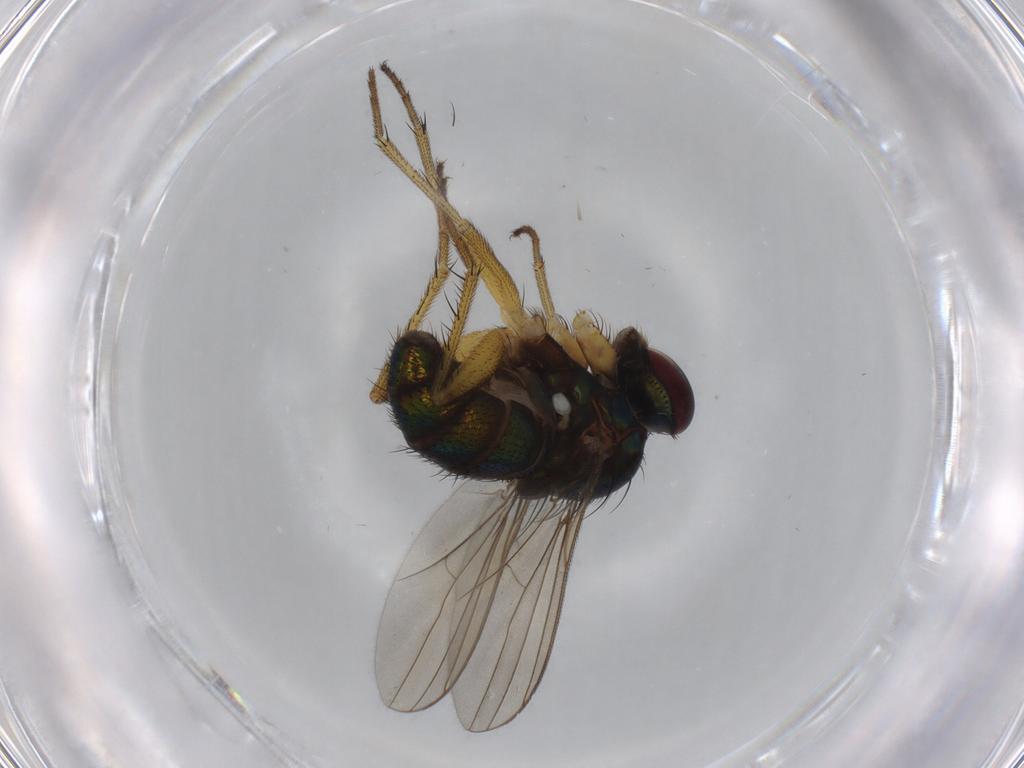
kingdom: Animalia
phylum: Arthropoda
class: Insecta
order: Diptera
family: Dolichopodidae
